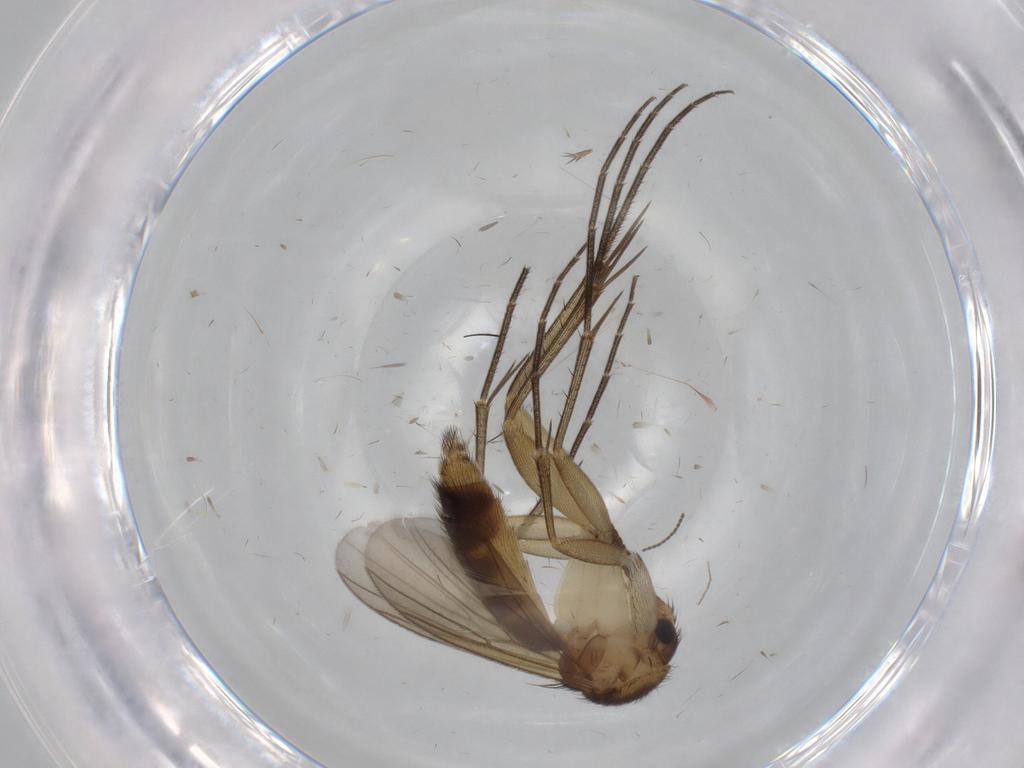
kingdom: Animalia
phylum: Arthropoda
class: Insecta
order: Diptera
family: Mycetophilidae
